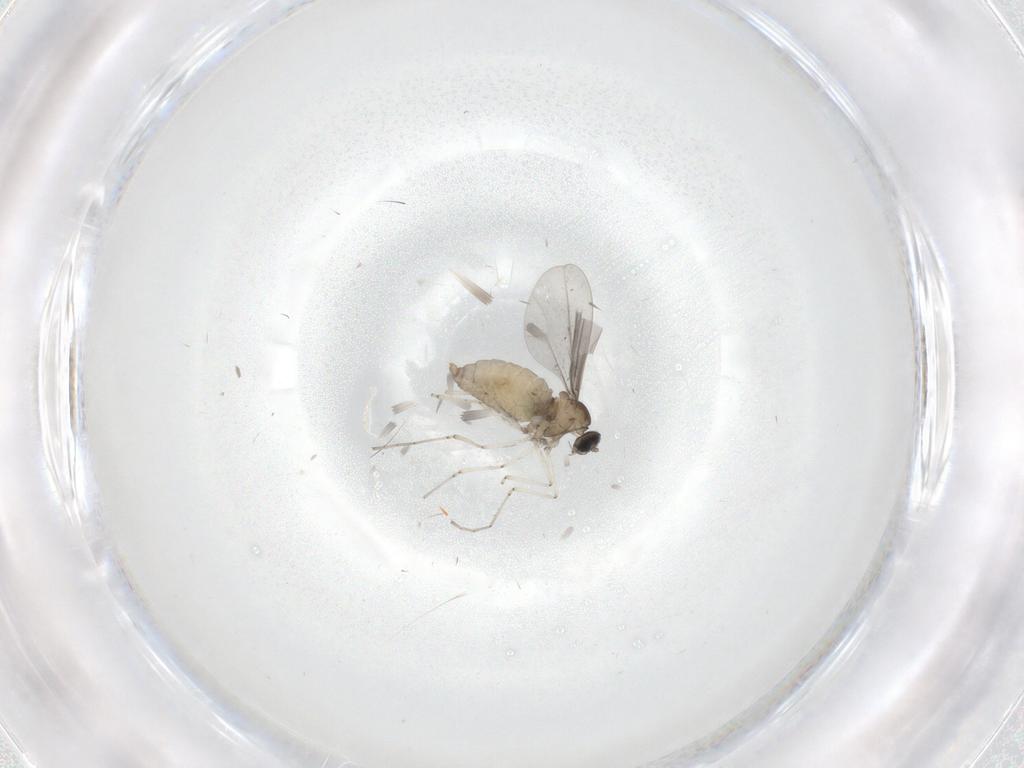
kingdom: Animalia
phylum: Arthropoda
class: Insecta
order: Diptera
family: Sciaridae
